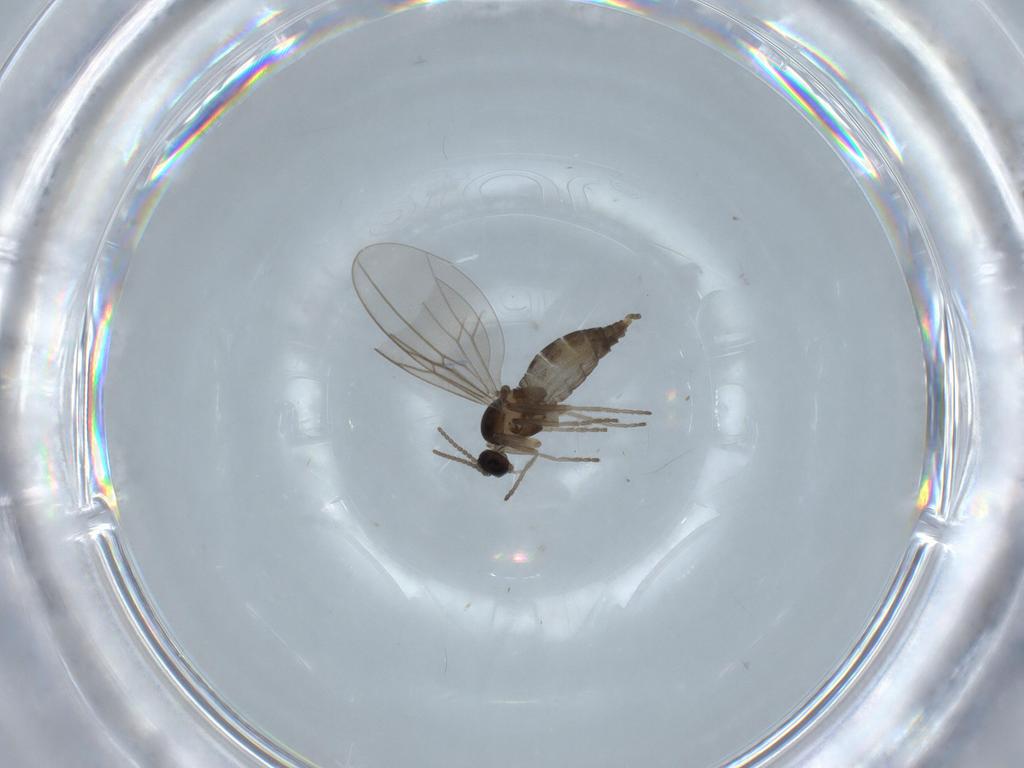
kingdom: Animalia
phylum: Arthropoda
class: Insecta
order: Diptera
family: Cecidomyiidae
